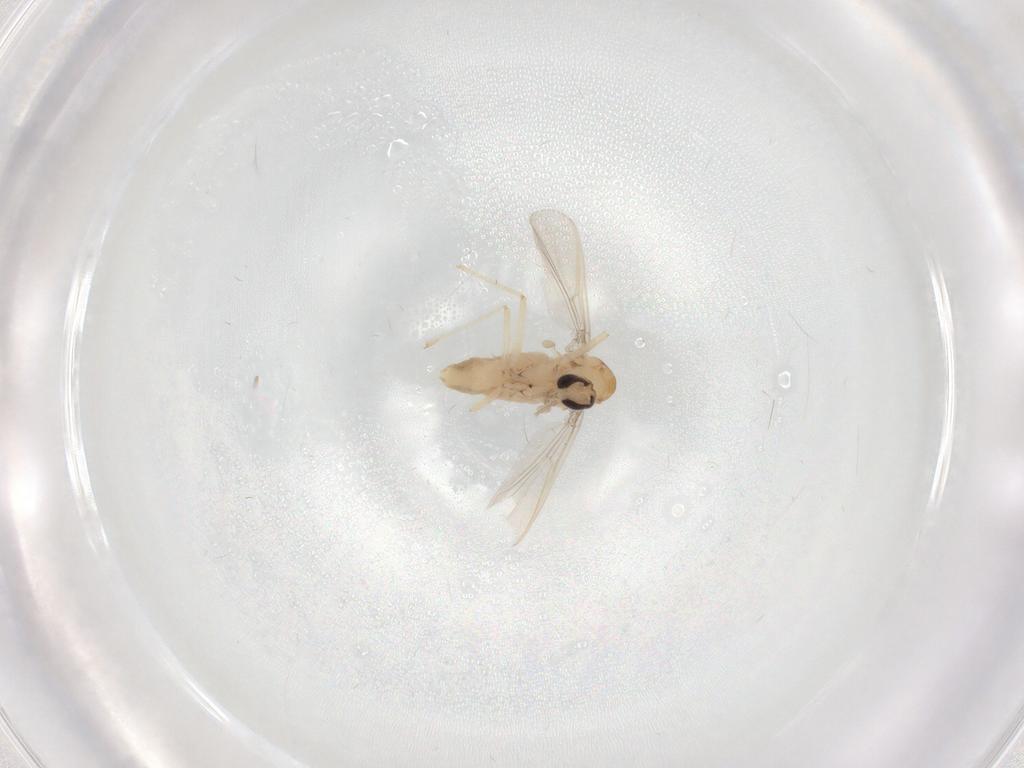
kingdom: Animalia
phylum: Arthropoda
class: Insecta
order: Diptera
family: Chironomidae
